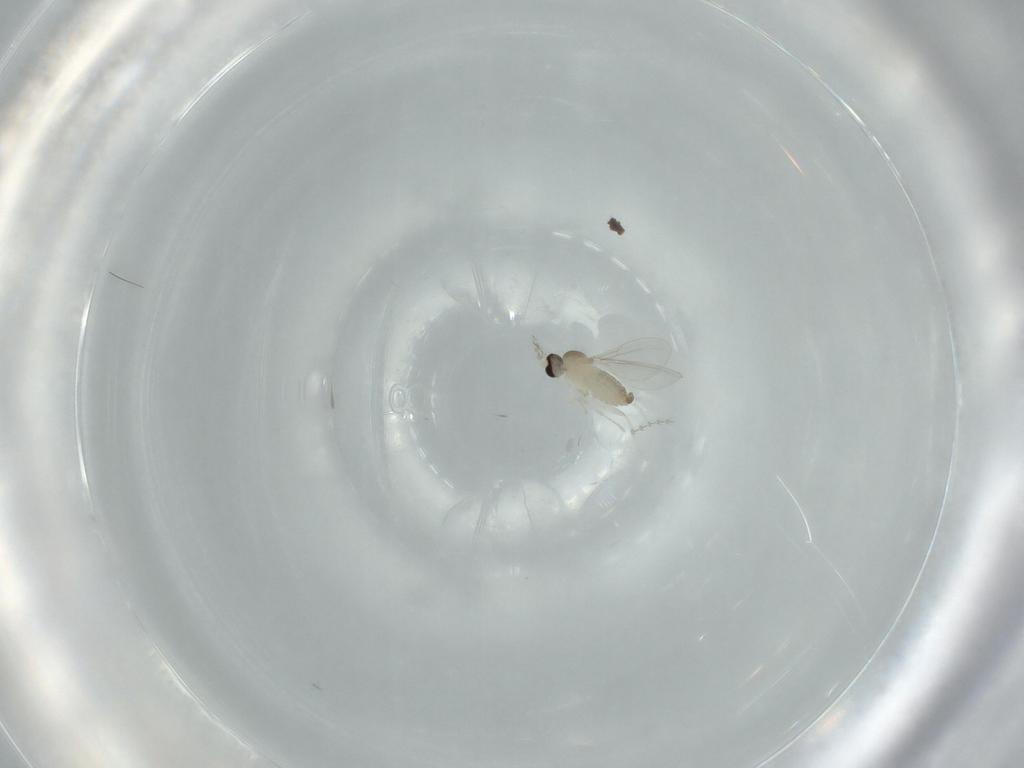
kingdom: Animalia
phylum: Arthropoda
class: Insecta
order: Diptera
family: Cecidomyiidae
